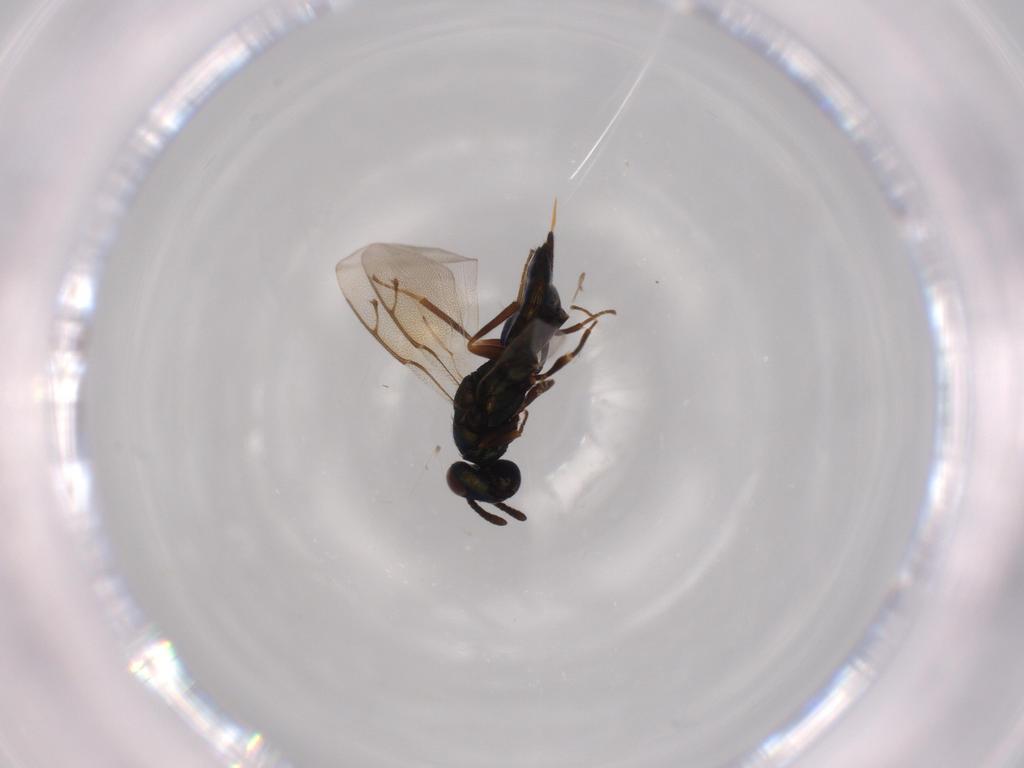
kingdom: Animalia
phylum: Arthropoda
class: Insecta
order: Hymenoptera
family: Pteromalidae
